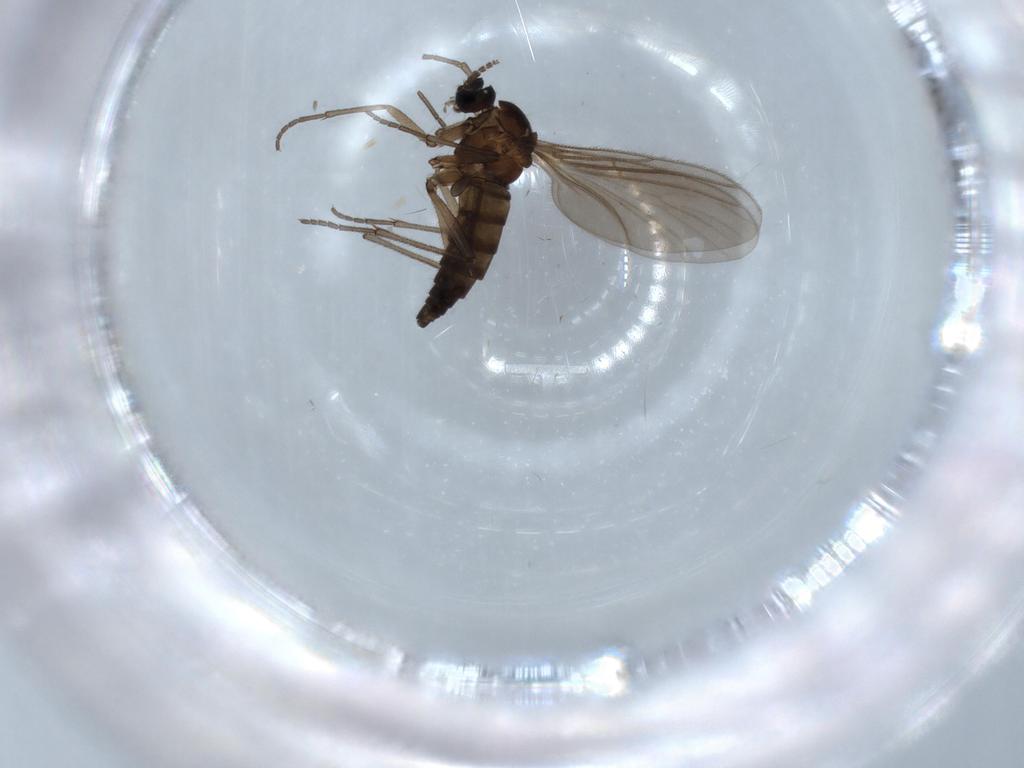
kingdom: Animalia
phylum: Arthropoda
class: Insecta
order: Diptera
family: Sciaridae
